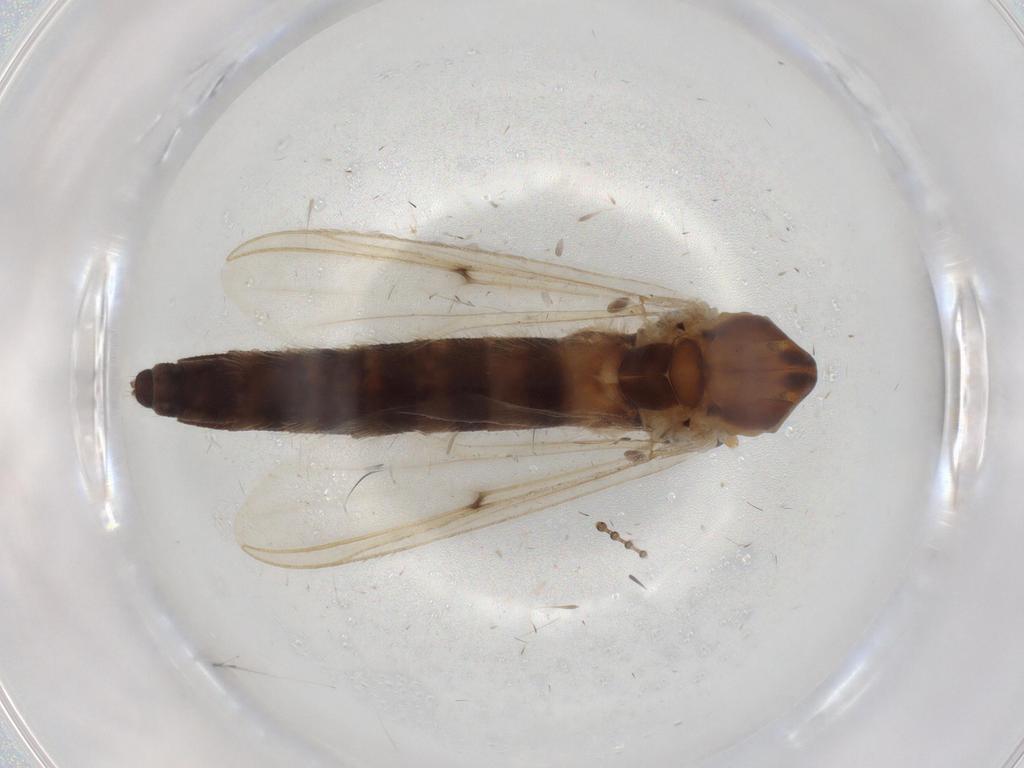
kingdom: Animalia
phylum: Arthropoda
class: Insecta
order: Diptera
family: Chironomidae
